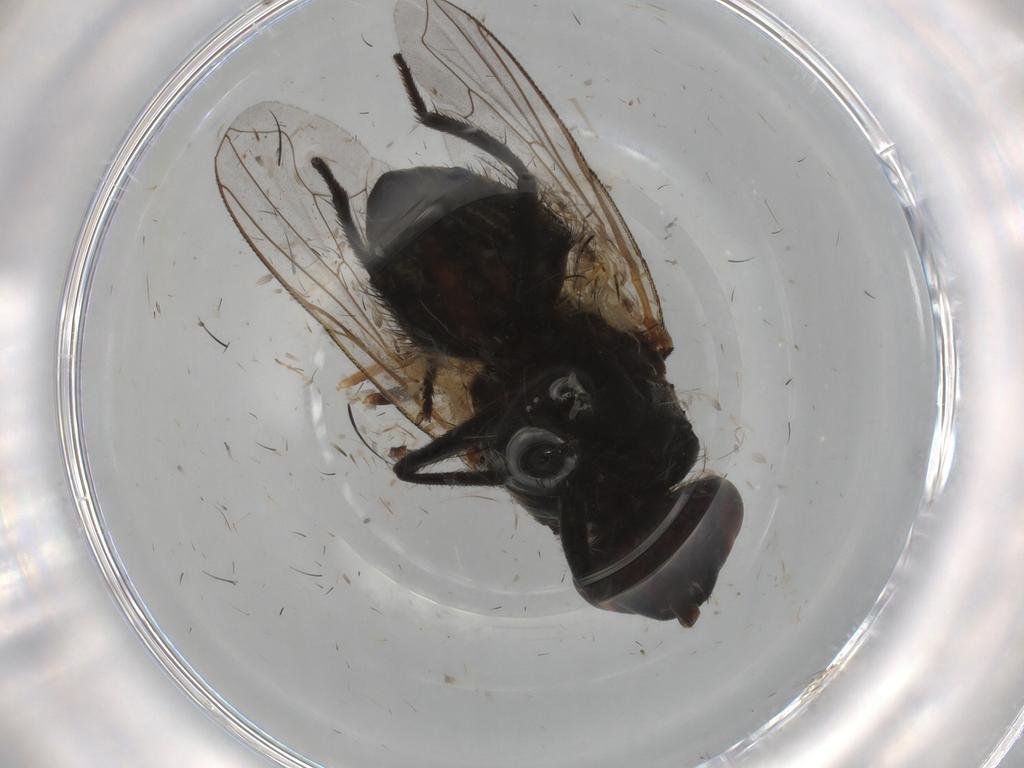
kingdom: Animalia
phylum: Arthropoda
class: Insecta
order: Diptera
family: Muscidae
